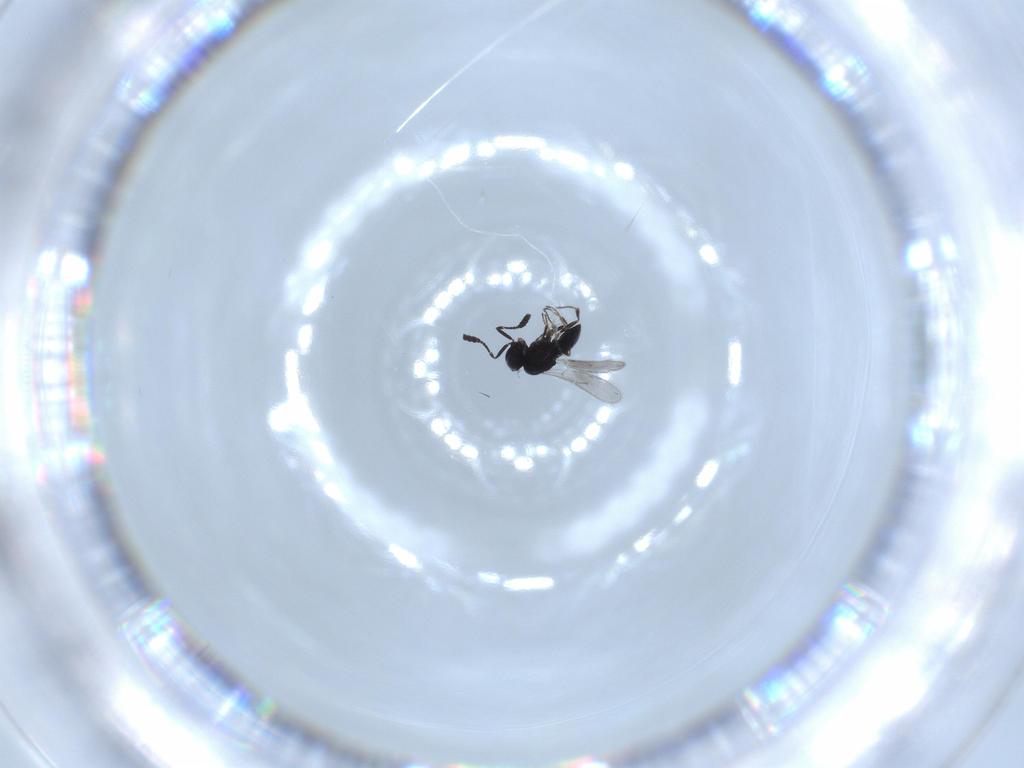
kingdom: Animalia
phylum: Arthropoda
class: Insecta
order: Hymenoptera
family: Scelionidae
